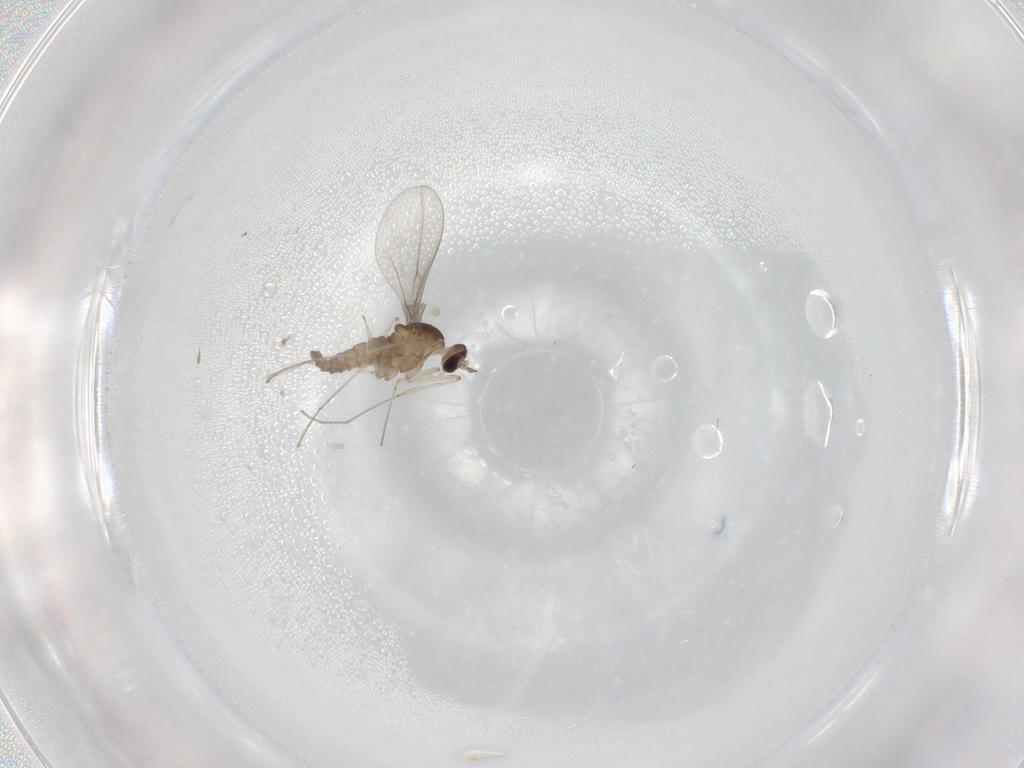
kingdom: Animalia
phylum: Arthropoda
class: Insecta
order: Diptera
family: Cecidomyiidae
